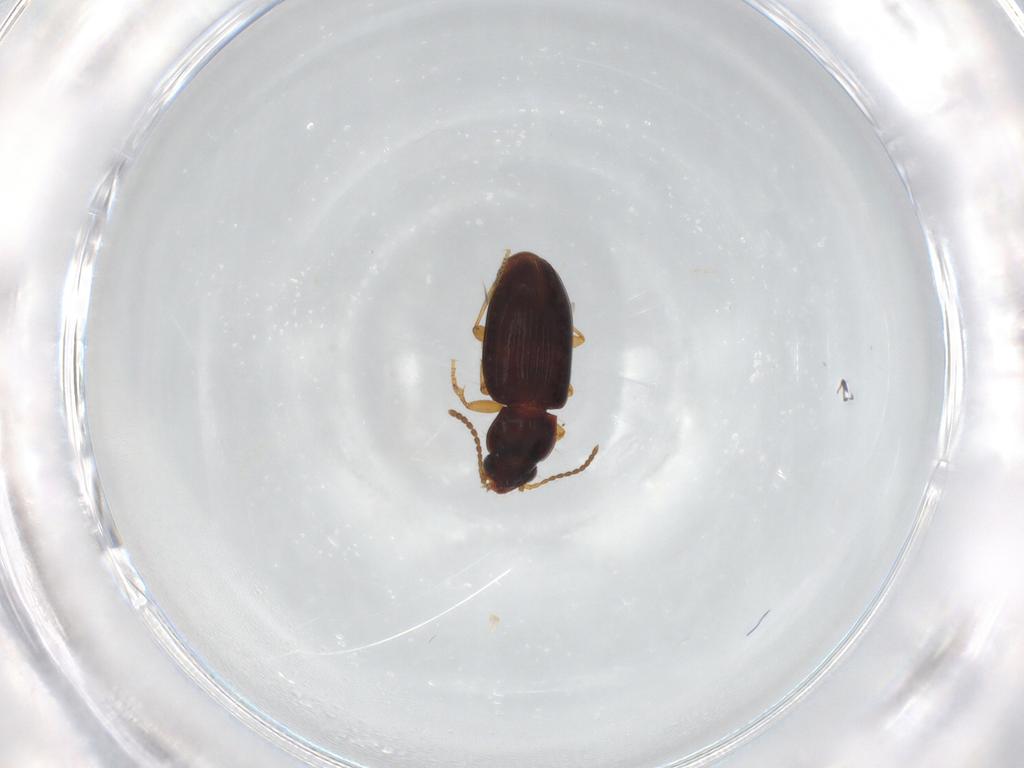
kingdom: Animalia
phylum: Arthropoda
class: Insecta
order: Coleoptera
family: Carabidae
